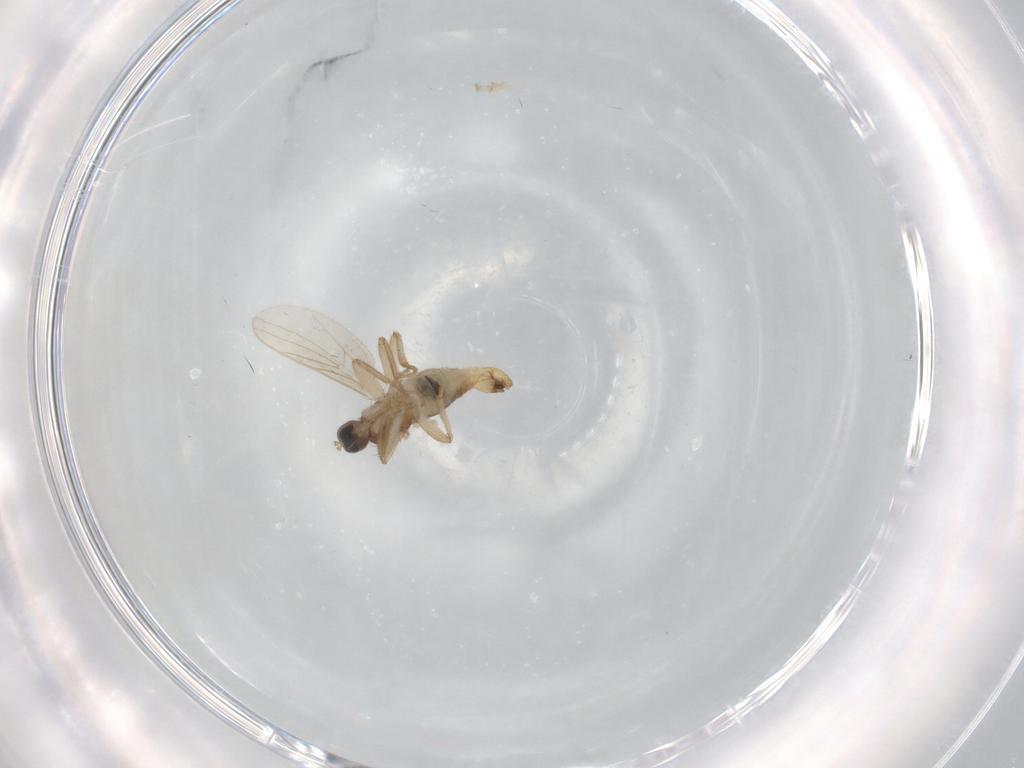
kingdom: Animalia
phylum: Arthropoda
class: Insecta
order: Diptera
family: Hybotidae
